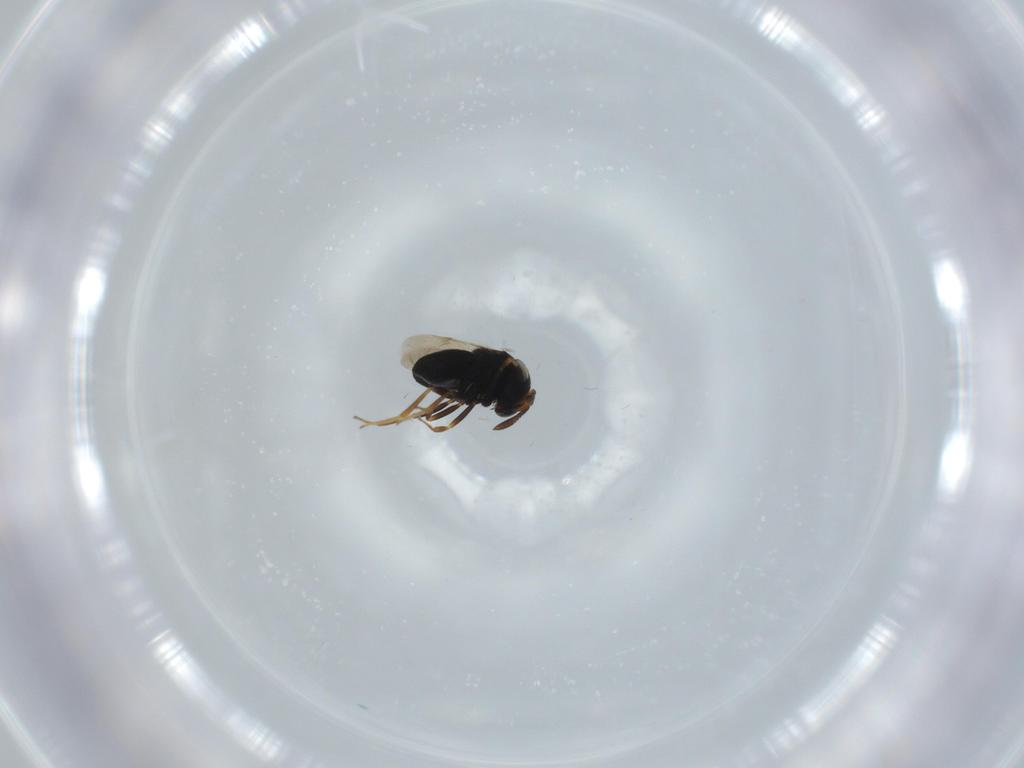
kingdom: Animalia
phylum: Arthropoda
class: Insecta
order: Hymenoptera
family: Scelionidae
